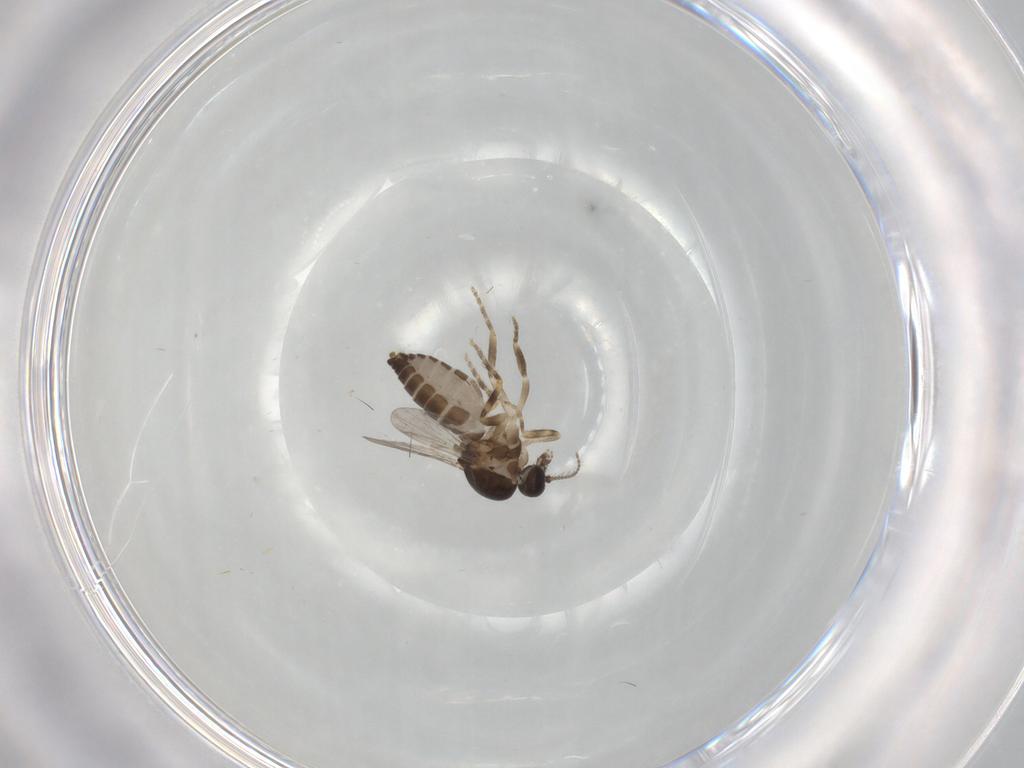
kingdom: Animalia
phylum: Arthropoda
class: Insecta
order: Diptera
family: Ceratopogonidae
